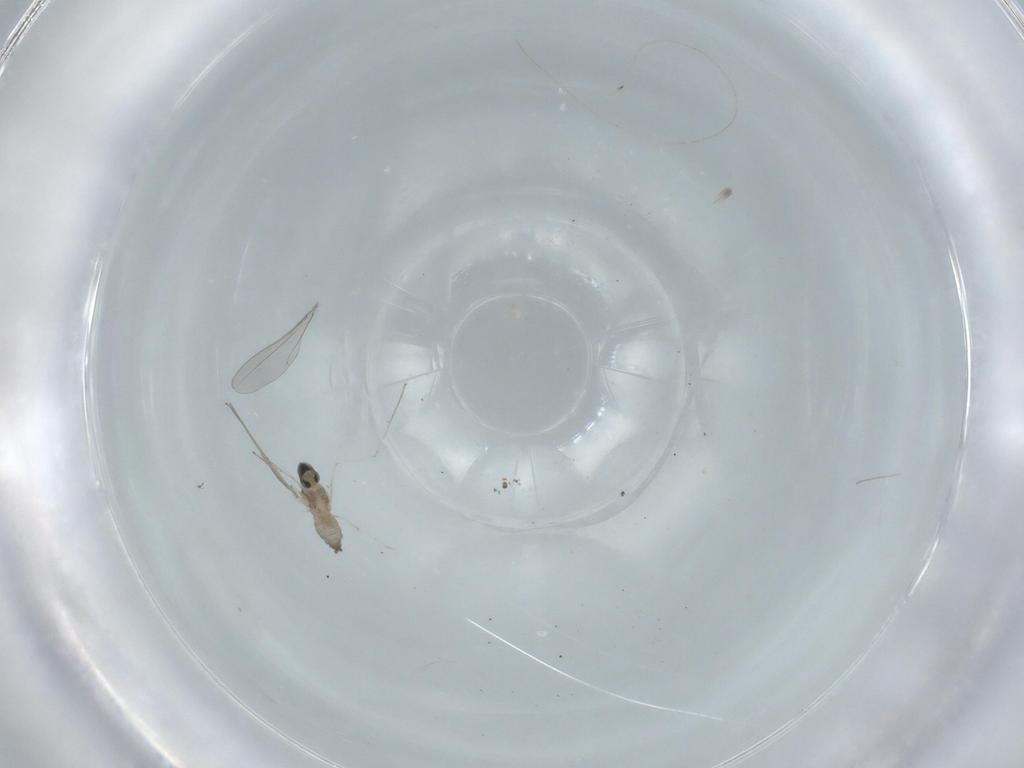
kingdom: Animalia
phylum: Arthropoda
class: Insecta
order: Diptera
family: Cecidomyiidae
